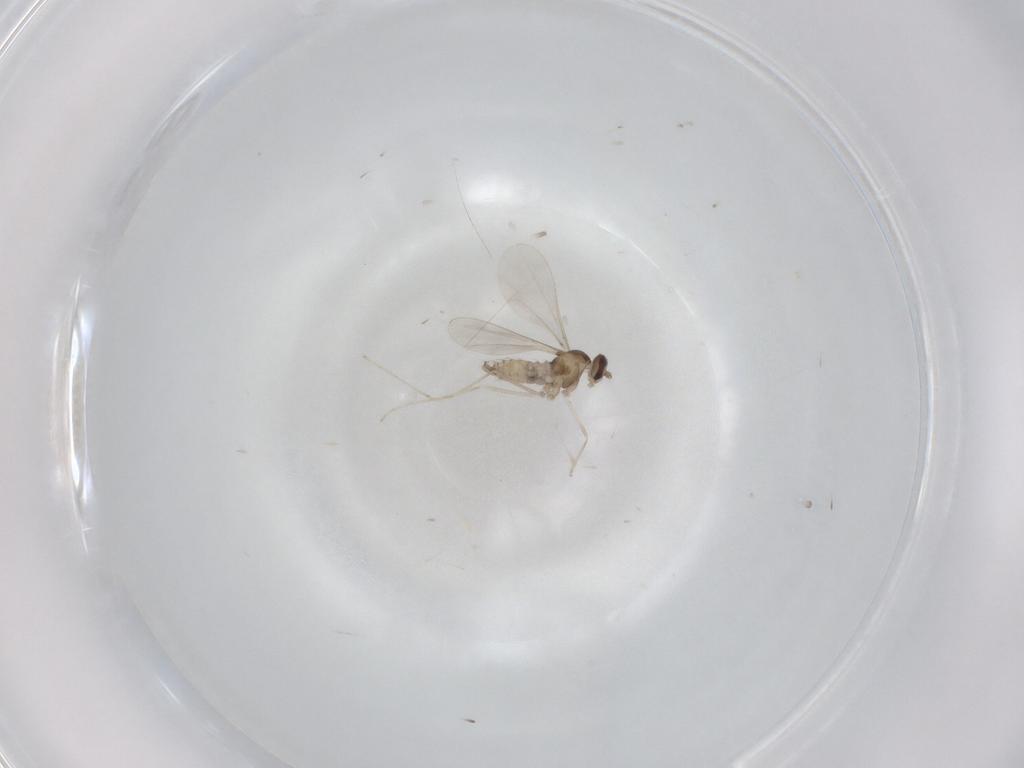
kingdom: Animalia
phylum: Arthropoda
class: Insecta
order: Diptera
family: Cecidomyiidae
